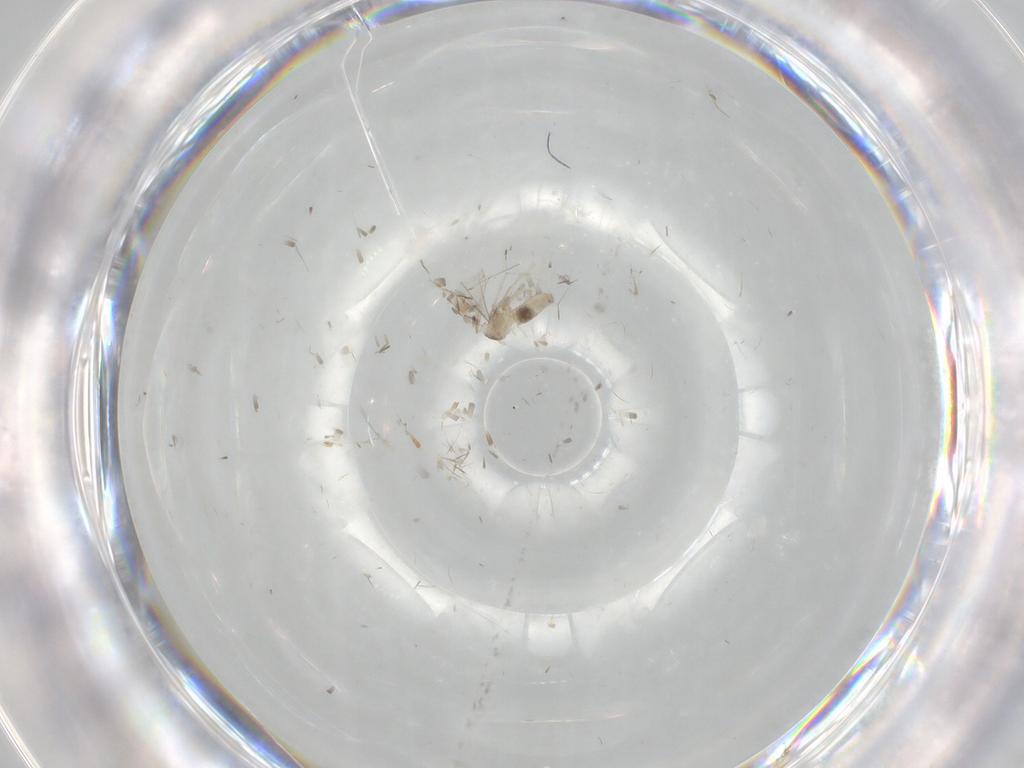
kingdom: Animalia
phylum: Arthropoda
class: Insecta
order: Diptera
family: Cecidomyiidae
